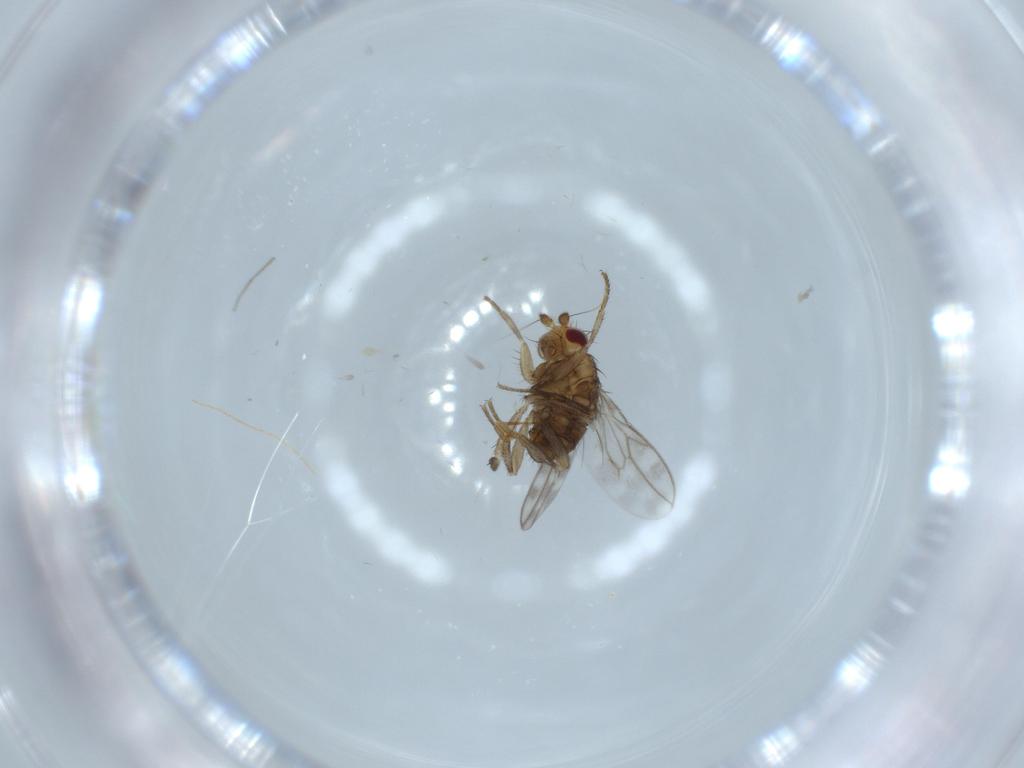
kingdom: Animalia
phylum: Arthropoda
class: Insecta
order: Diptera
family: Sphaeroceridae
